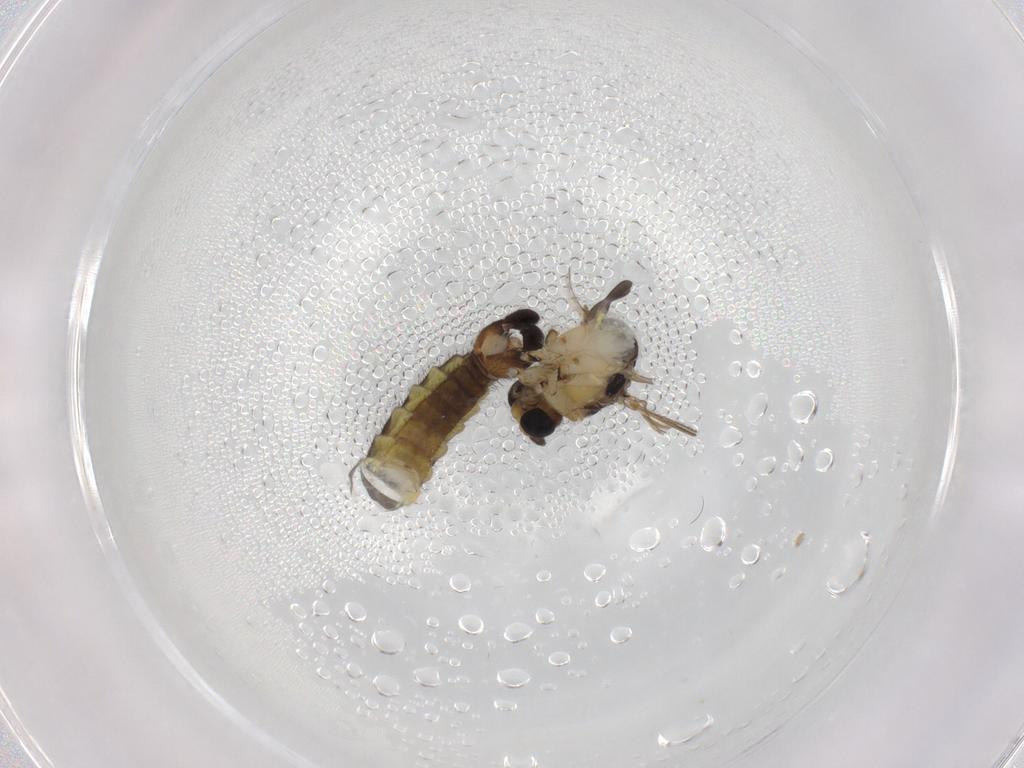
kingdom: Animalia
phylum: Arthropoda
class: Insecta
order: Diptera
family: Sciaridae
